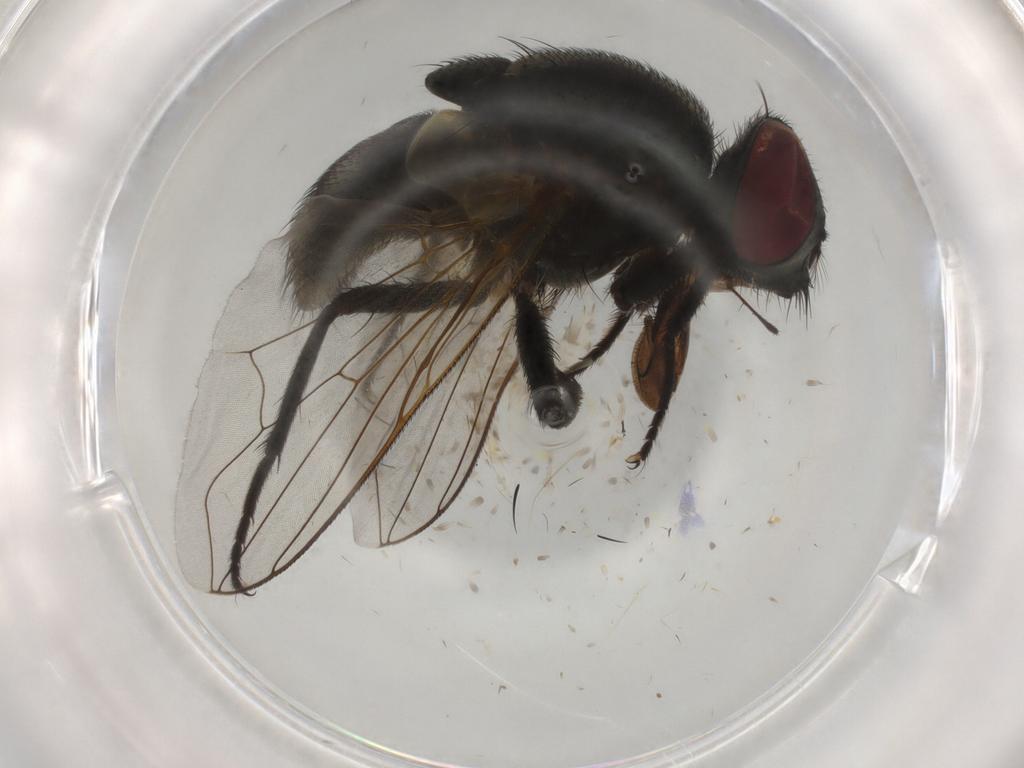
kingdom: Animalia
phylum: Arthropoda
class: Insecta
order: Diptera
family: Muscidae
